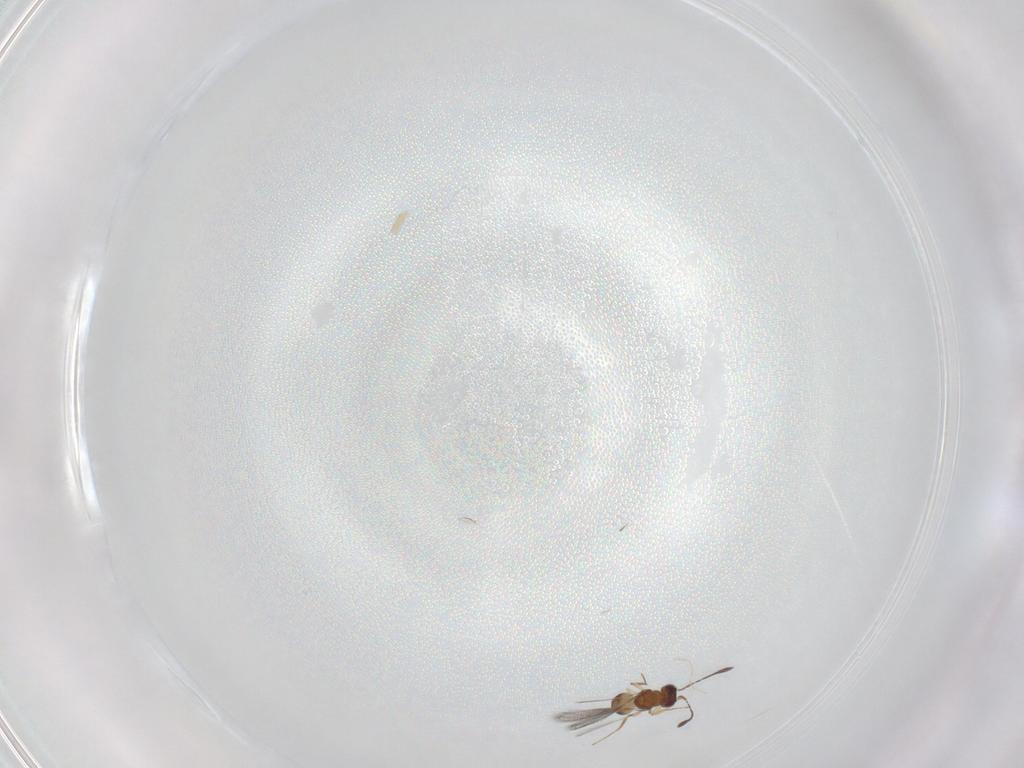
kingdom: Animalia
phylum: Arthropoda
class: Insecta
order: Hymenoptera
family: Mymaridae
